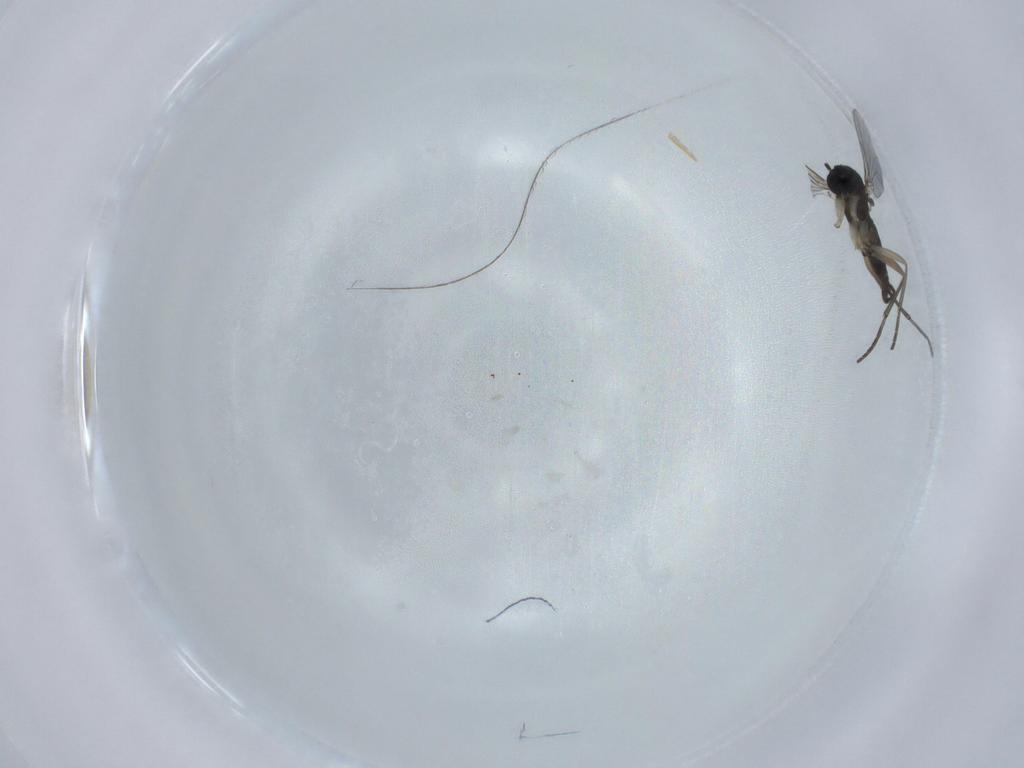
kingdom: Animalia
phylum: Arthropoda
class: Insecta
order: Diptera
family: Sciaridae
